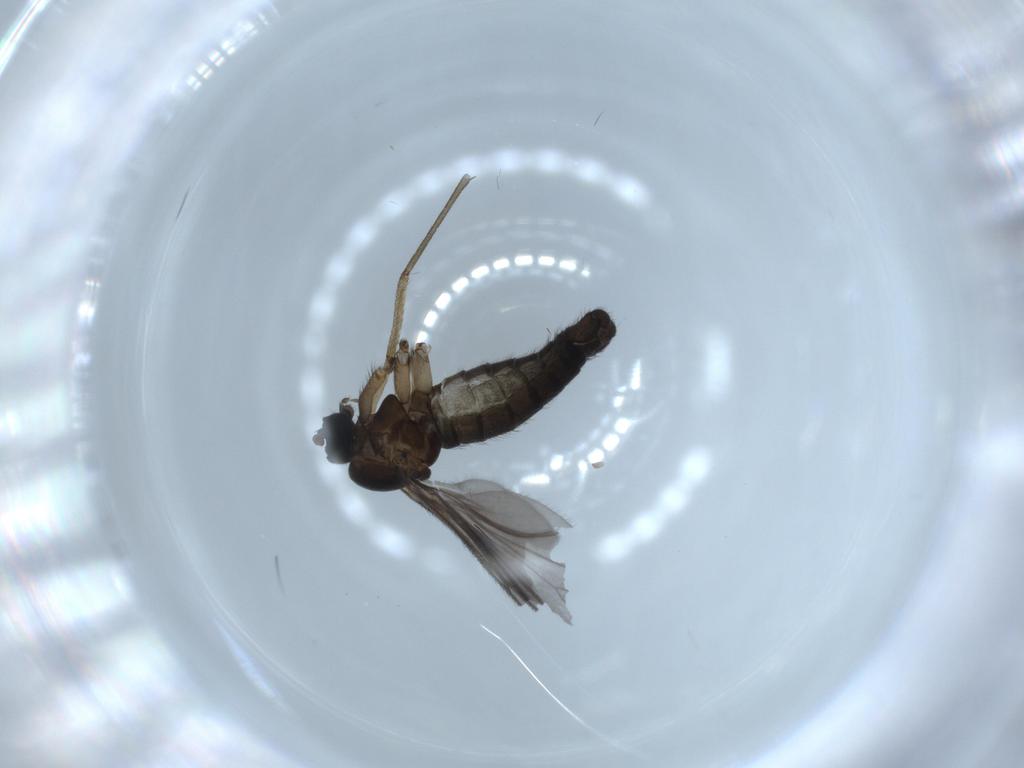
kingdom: Animalia
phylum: Arthropoda
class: Insecta
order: Diptera
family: Sciaridae
